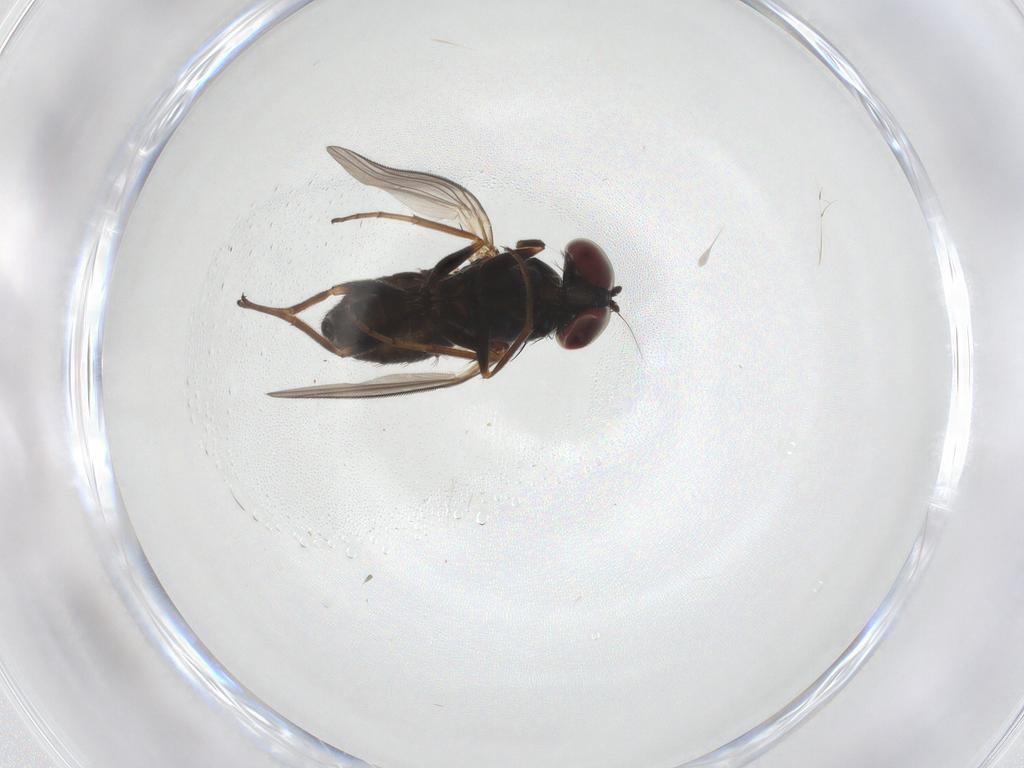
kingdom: Animalia
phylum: Arthropoda
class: Insecta
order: Diptera
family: Dolichopodidae
